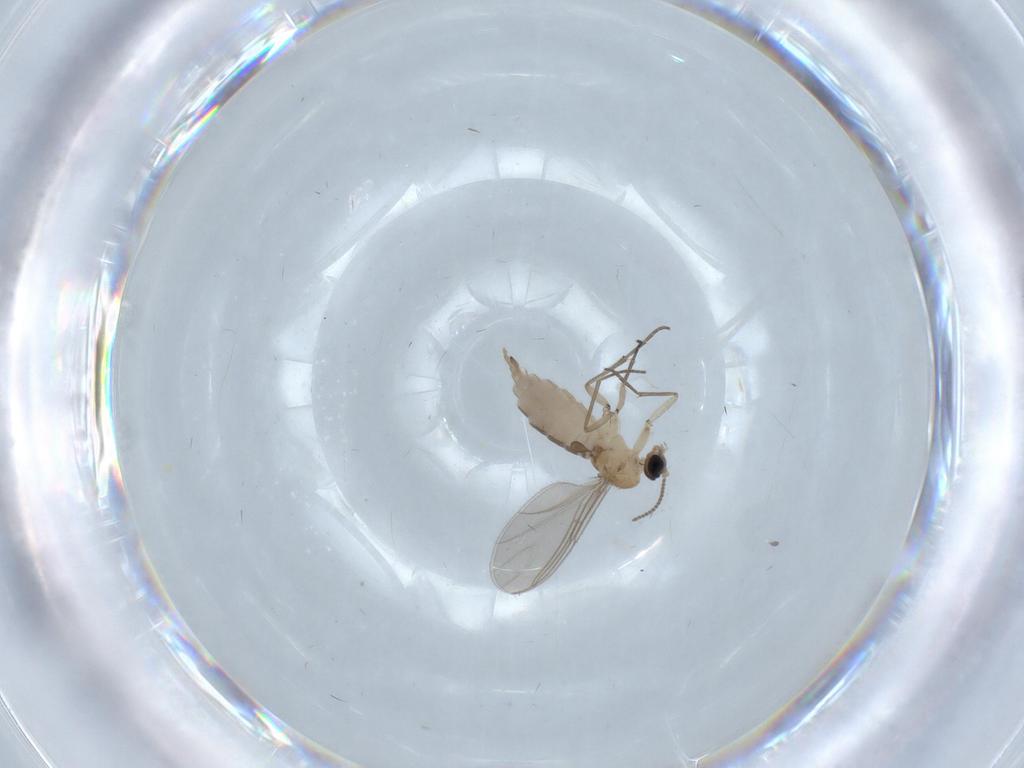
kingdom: Animalia
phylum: Arthropoda
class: Insecta
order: Diptera
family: Sciaridae
